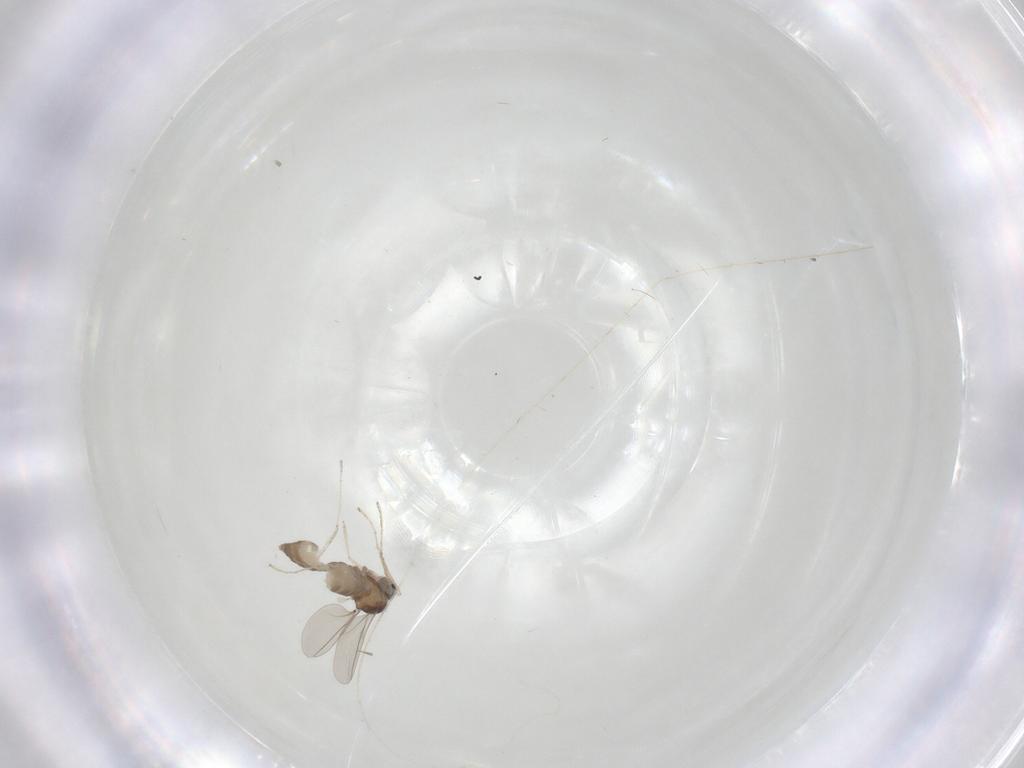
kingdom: Animalia
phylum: Arthropoda
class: Insecta
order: Diptera
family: Cecidomyiidae
